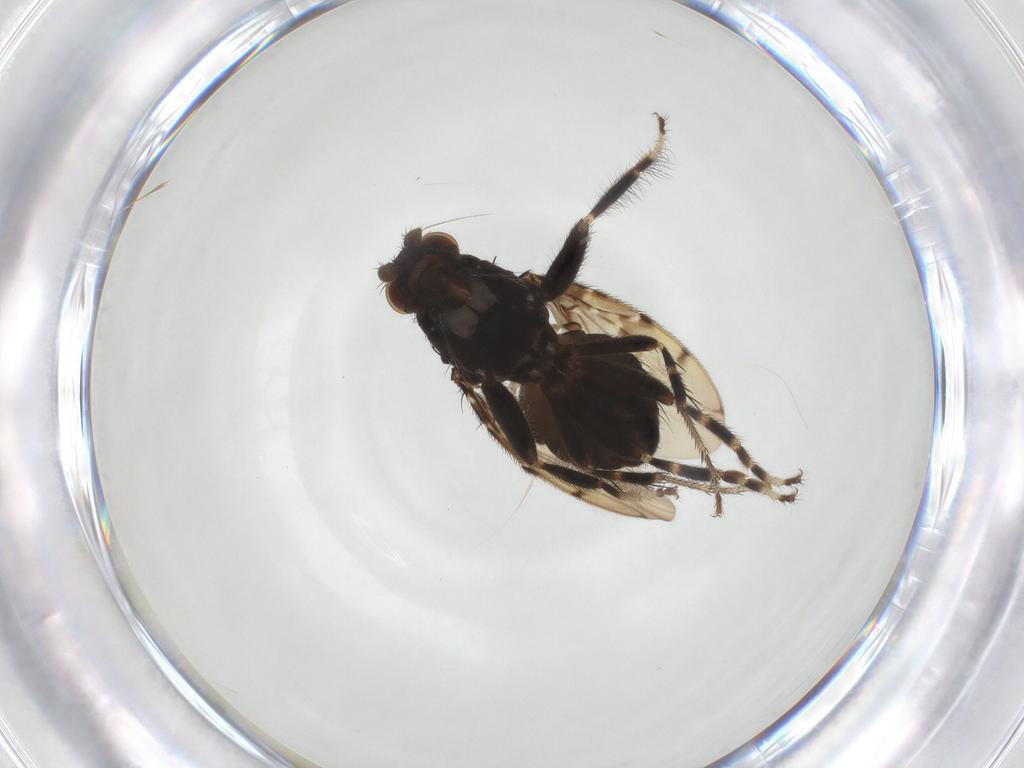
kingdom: Animalia
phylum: Arthropoda
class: Insecta
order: Diptera
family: Sphaeroceridae
